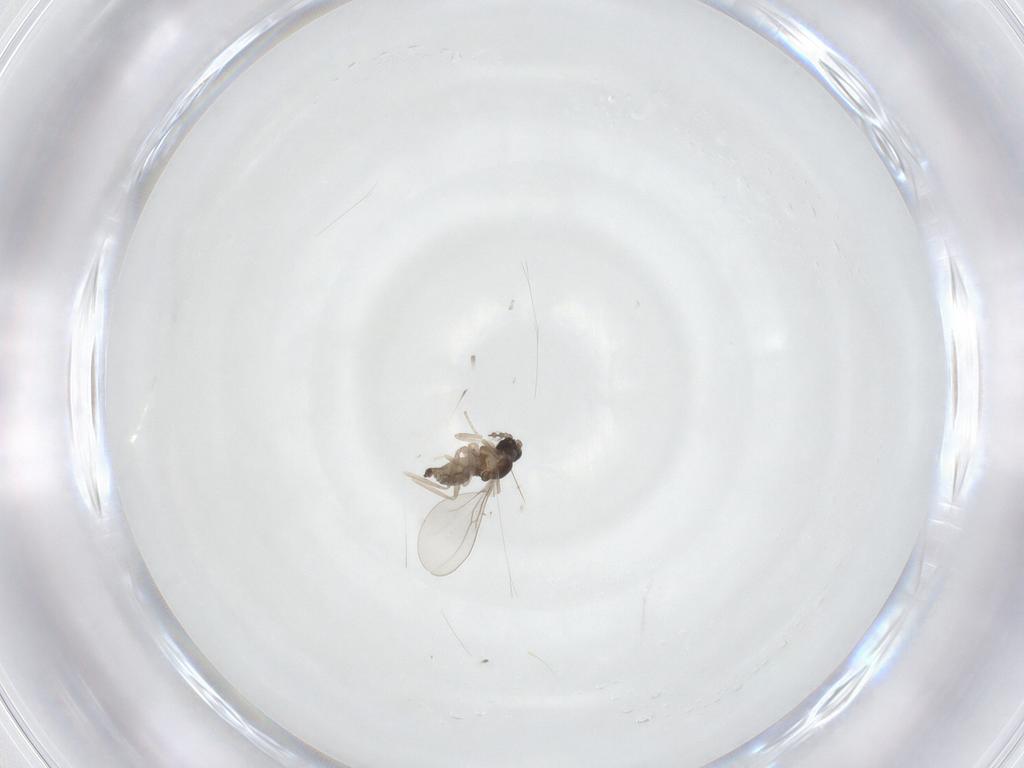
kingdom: Animalia
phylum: Arthropoda
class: Insecta
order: Diptera
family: Cecidomyiidae
